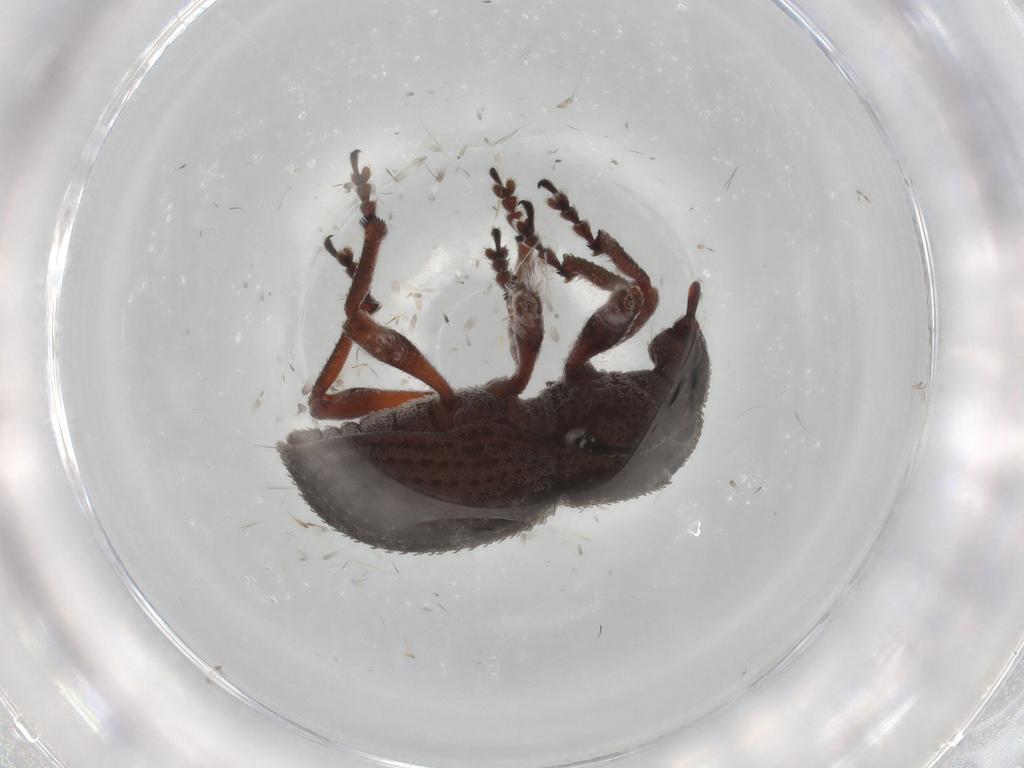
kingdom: Animalia
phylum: Arthropoda
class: Insecta
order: Coleoptera
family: Curculionidae
